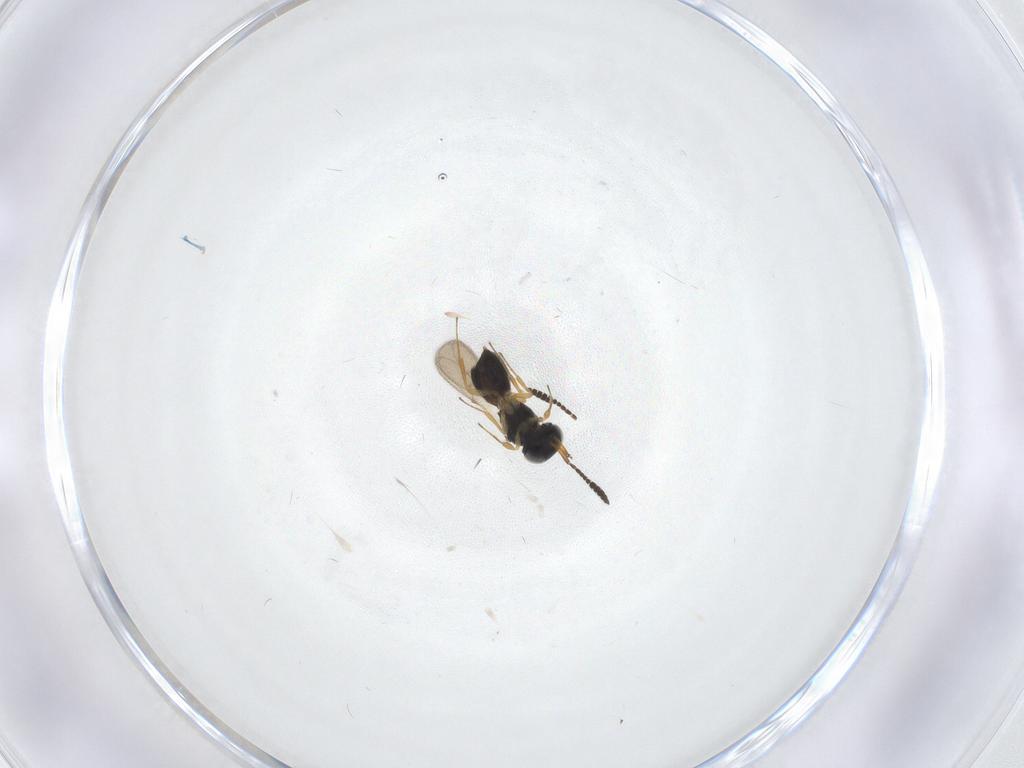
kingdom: Animalia
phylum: Arthropoda
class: Insecta
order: Hymenoptera
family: Scelionidae
